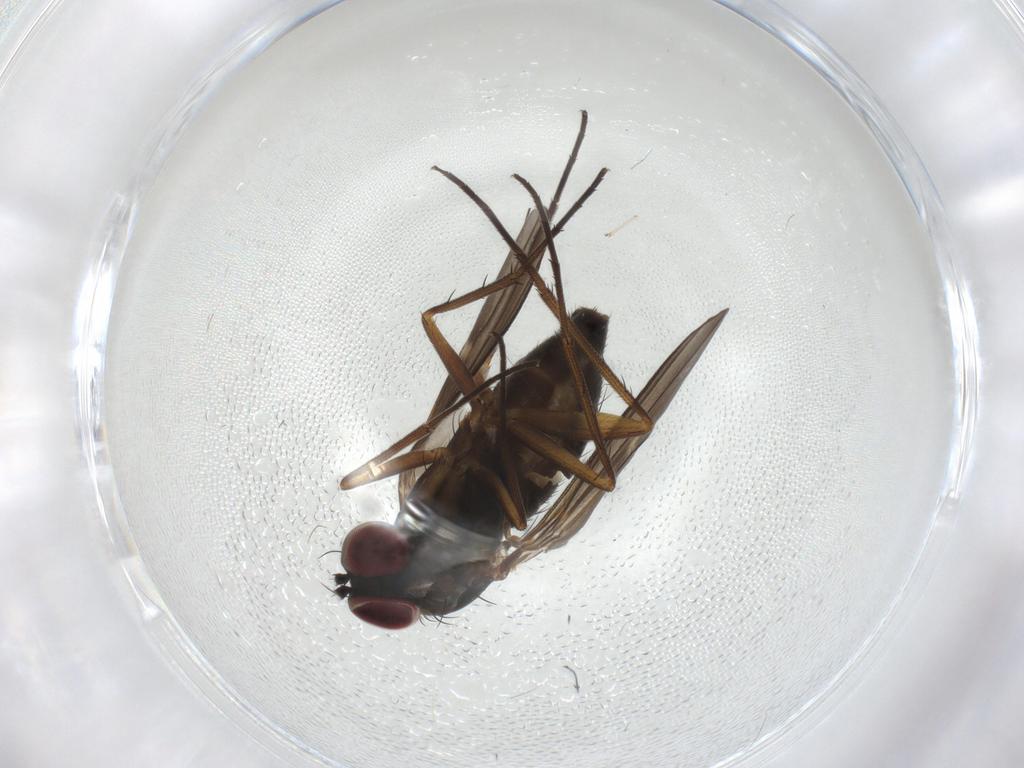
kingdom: Animalia
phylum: Arthropoda
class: Insecta
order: Diptera
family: Dolichopodidae
